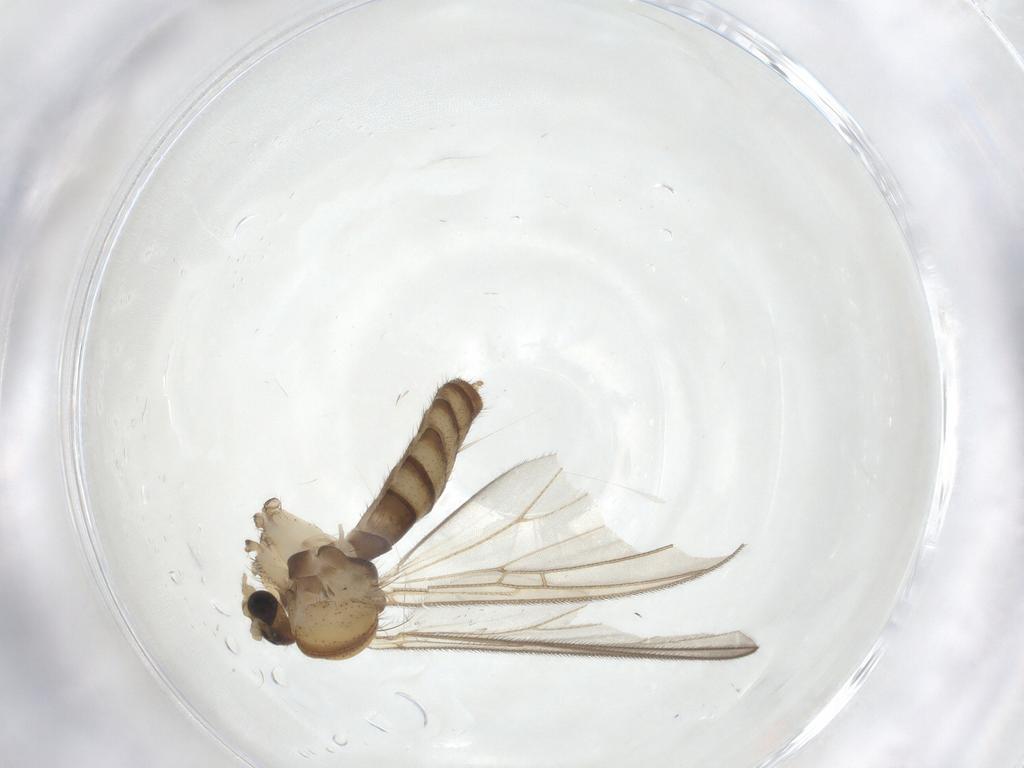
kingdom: Animalia
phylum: Arthropoda
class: Insecta
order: Diptera
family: Mycetophilidae
